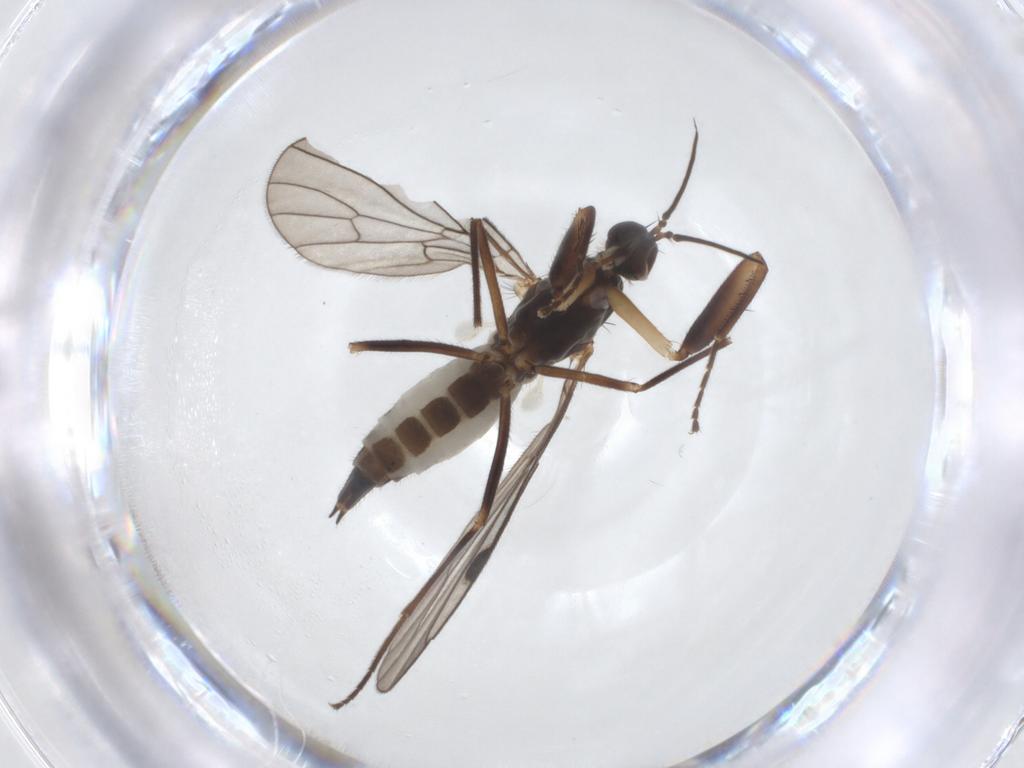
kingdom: Animalia
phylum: Arthropoda
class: Insecta
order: Diptera
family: Empididae
